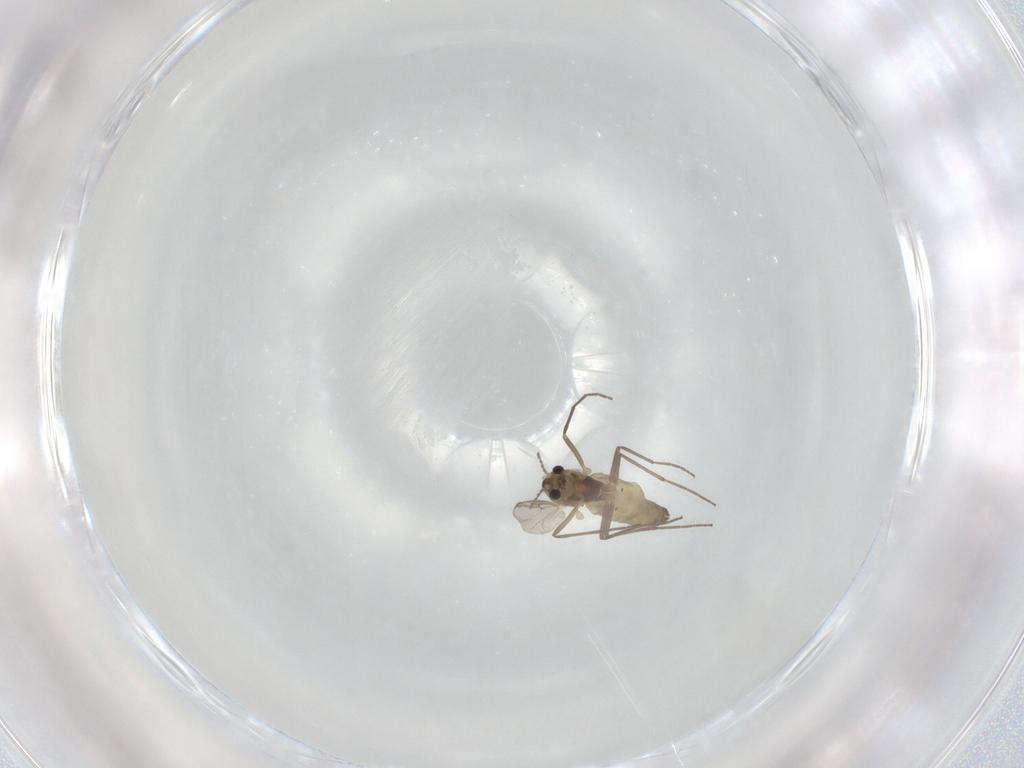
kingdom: Animalia
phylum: Arthropoda
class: Insecta
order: Diptera
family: Chironomidae
